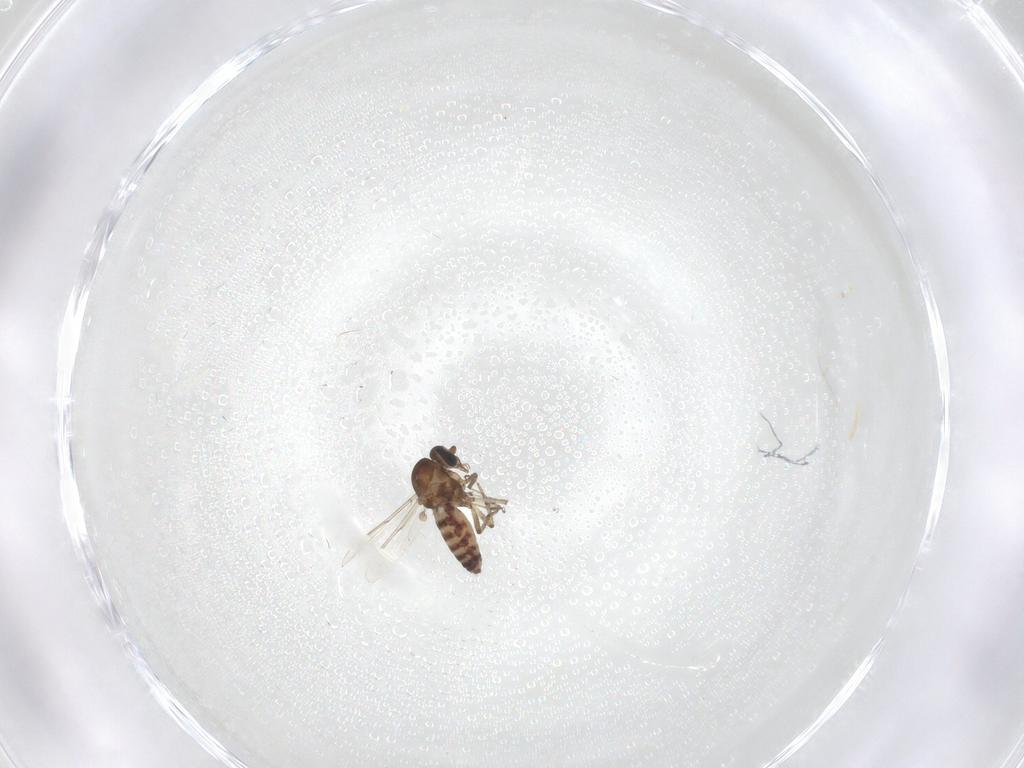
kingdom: Animalia
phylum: Arthropoda
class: Insecta
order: Diptera
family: Ceratopogonidae
